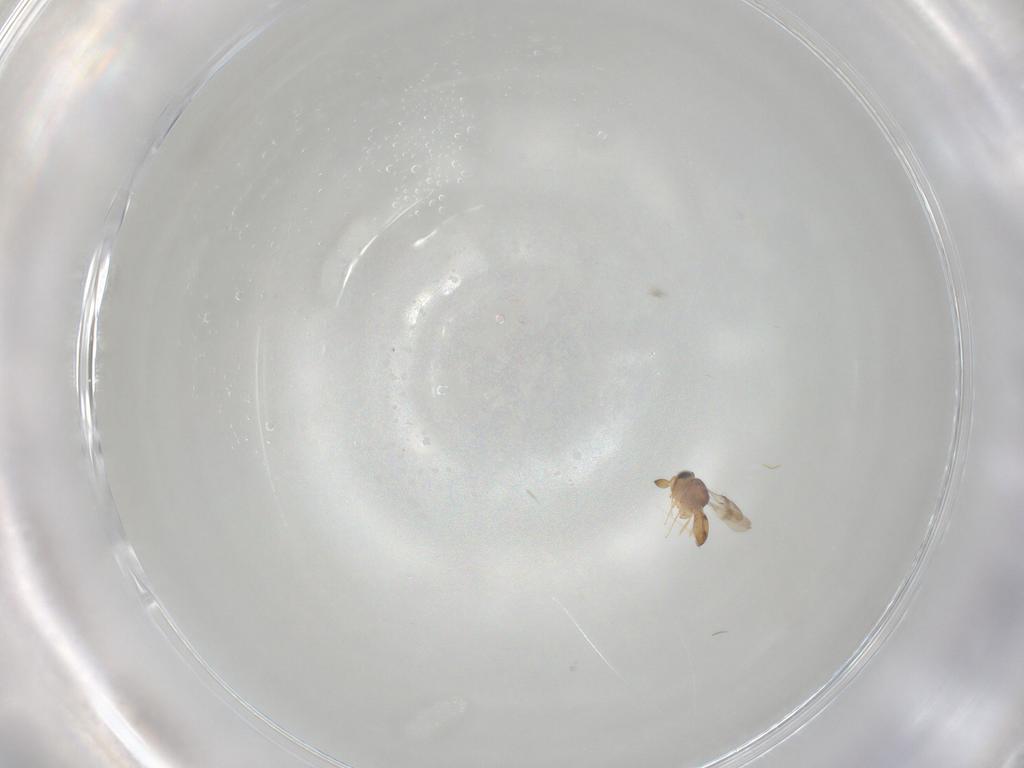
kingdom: Animalia
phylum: Arthropoda
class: Insecta
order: Hymenoptera
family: Scelionidae
